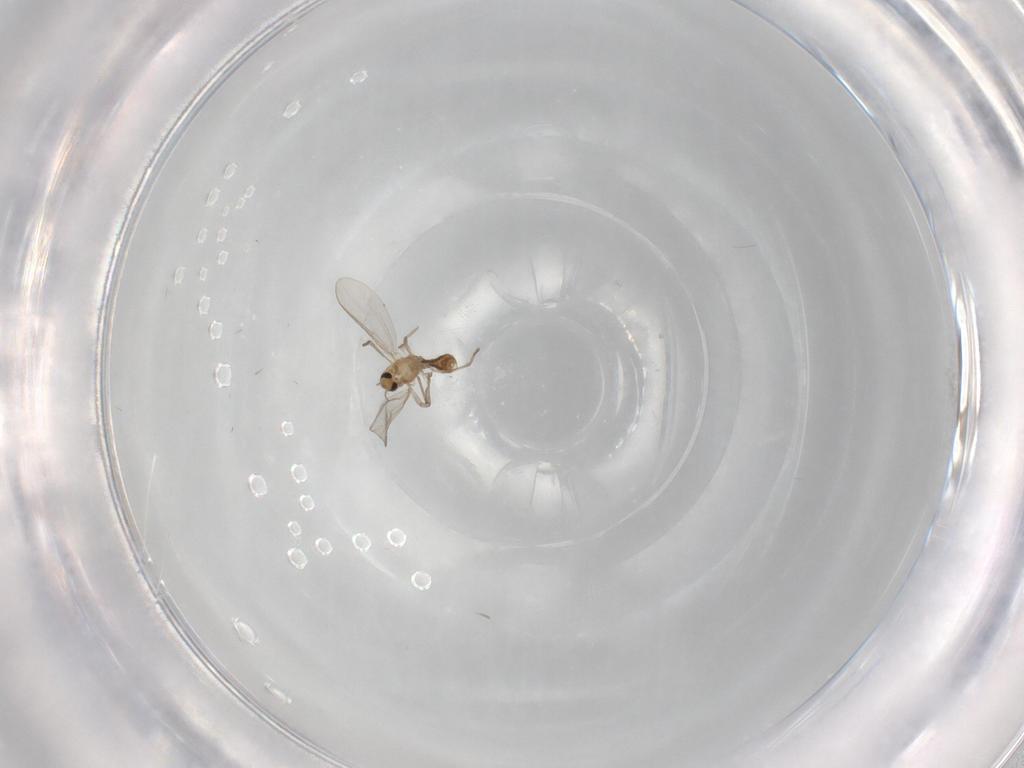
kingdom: Animalia
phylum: Arthropoda
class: Insecta
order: Diptera
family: Chironomidae
